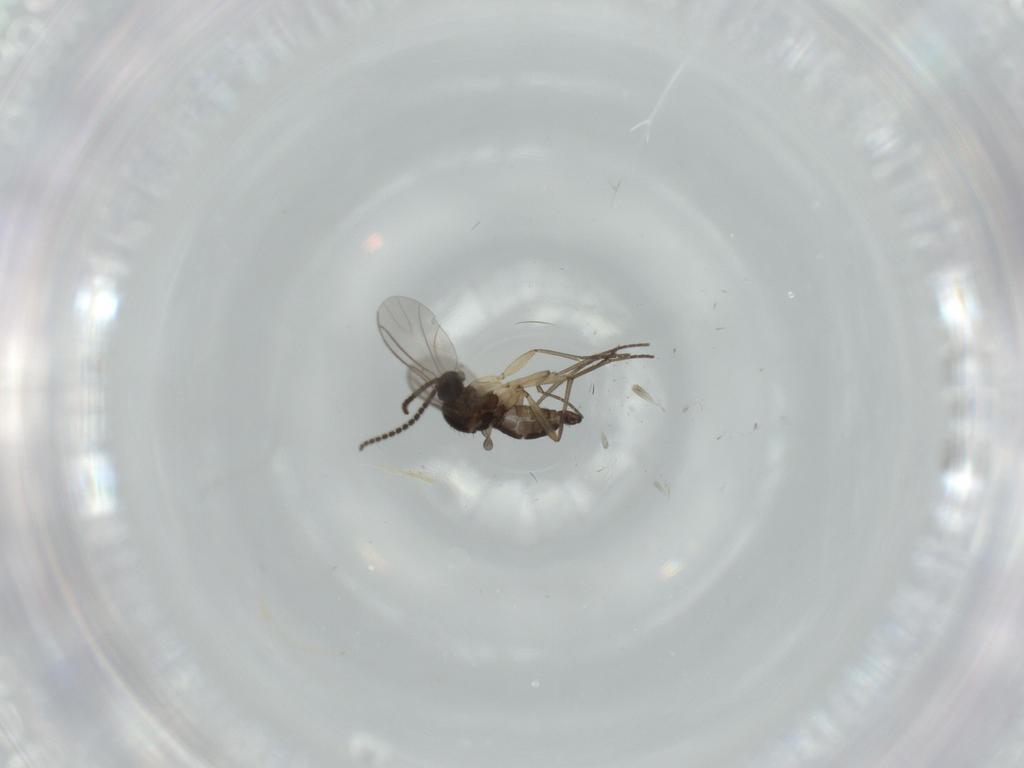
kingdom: Animalia
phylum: Arthropoda
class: Insecta
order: Diptera
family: Sciaridae
